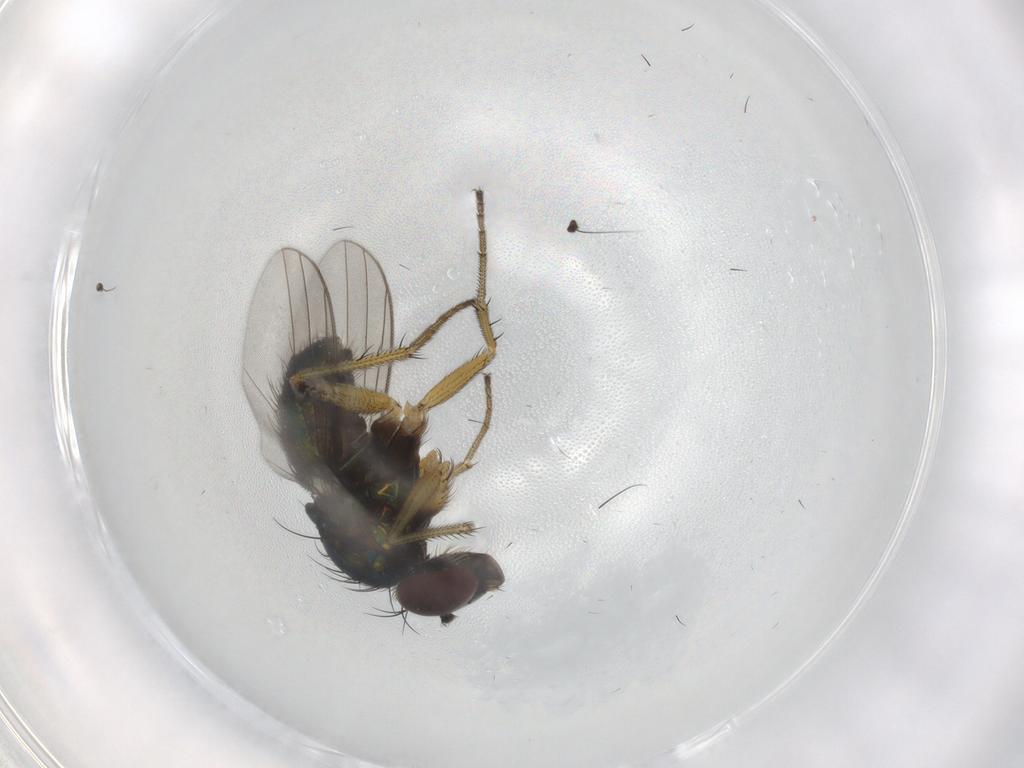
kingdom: Animalia
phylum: Arthropoda
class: Insecta
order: Diptera
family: Dolichopodidae
